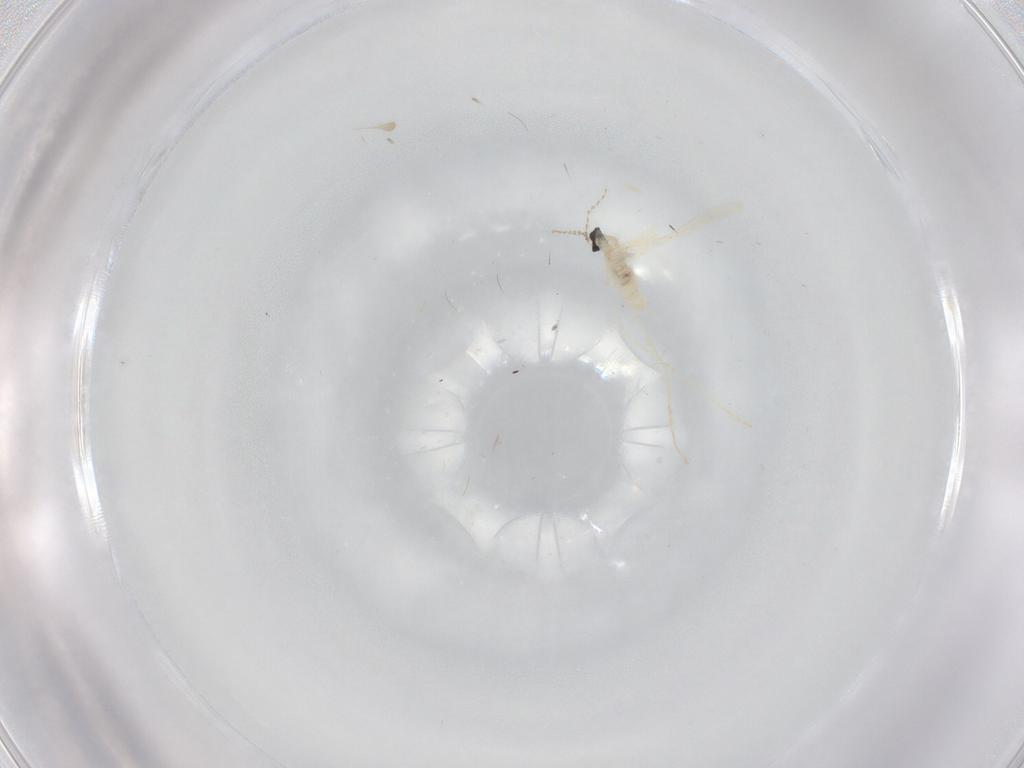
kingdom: Animalia
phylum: Arthropoda
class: Insecta
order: Diptera
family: Cecidomyiidae
